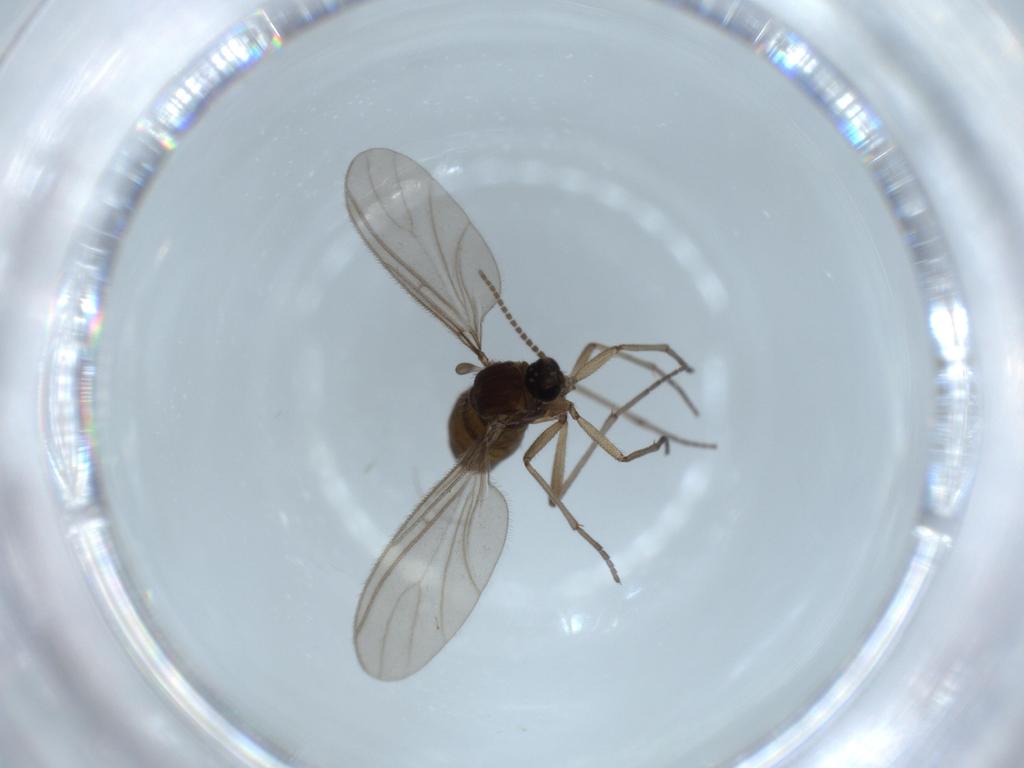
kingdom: Animalia
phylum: Arthropoda
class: Insecta
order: Diptera
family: Sciaridae
